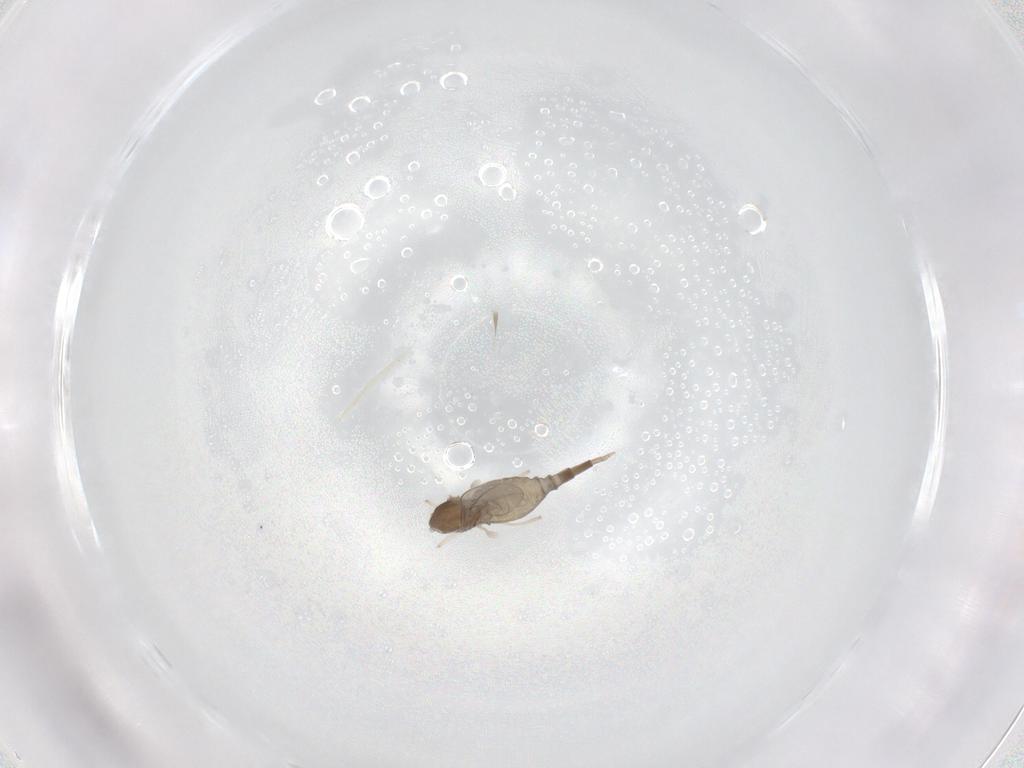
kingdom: Animalia
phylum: Arthropoda
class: Insecta
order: Diptera
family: Cecidomyiidae
